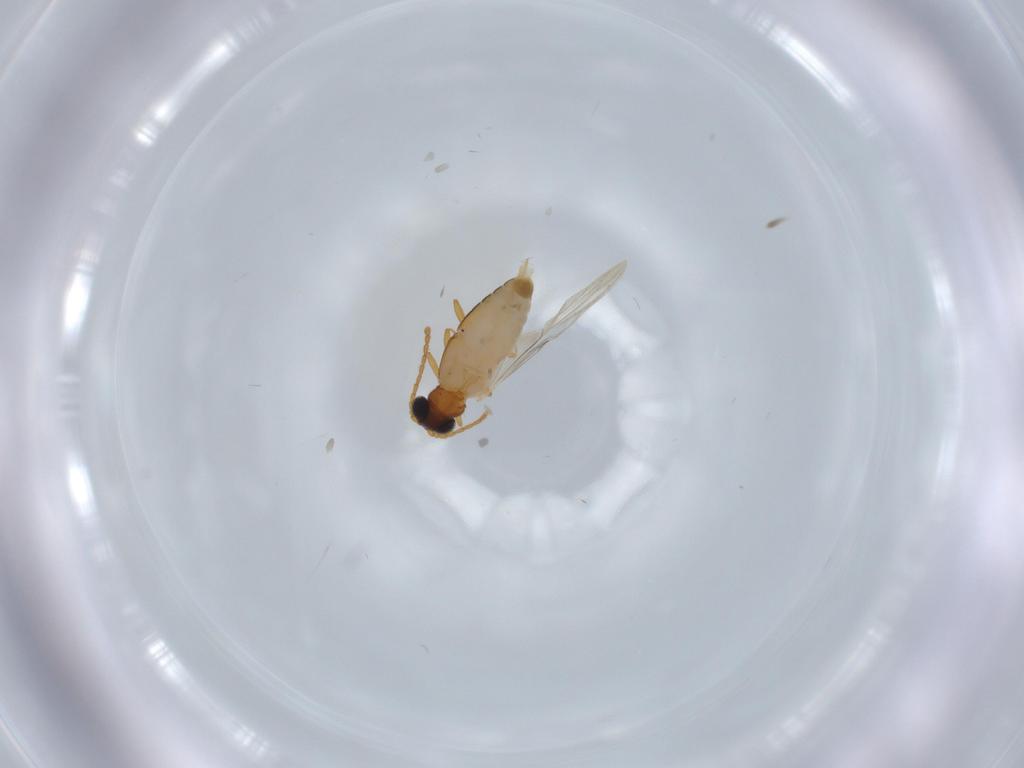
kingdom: Animalia
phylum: Arthropoda
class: Insecta
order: Coleoptera
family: Aderidae
